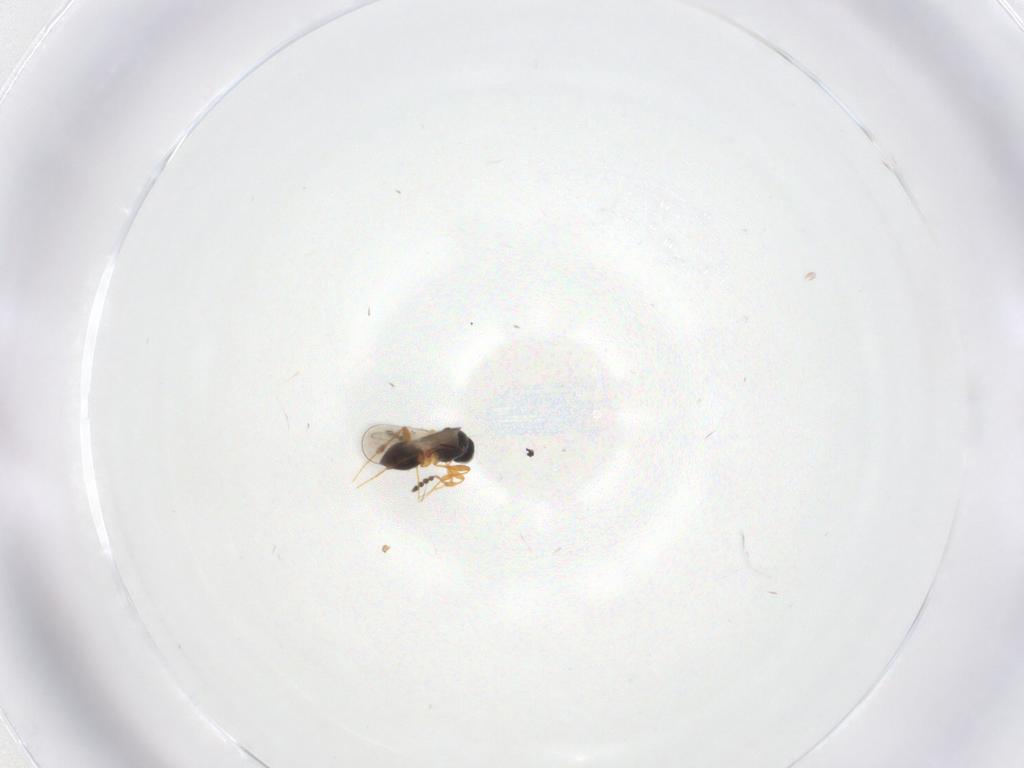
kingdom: Animalia
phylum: Arthropoda
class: Insecta
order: Hymenoptera
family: Platygastridae
